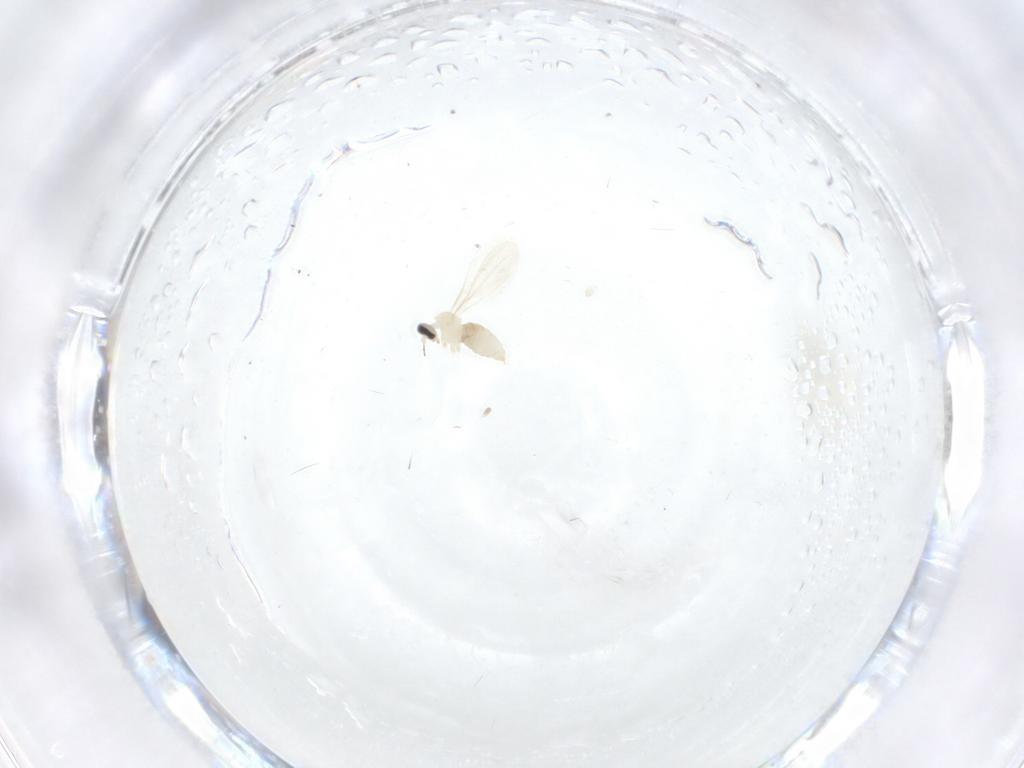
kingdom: Animalia
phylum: Arthropoda
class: Insecta
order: Diptera
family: Cecidomyiidae
